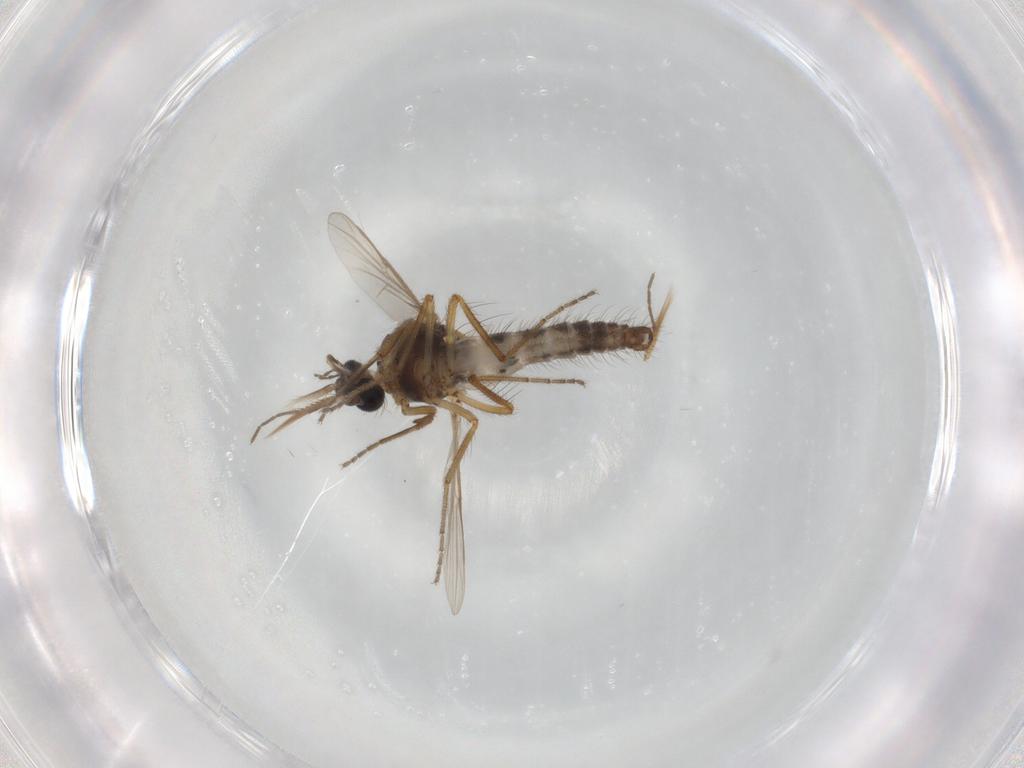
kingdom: Animalia
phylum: Arthropoda
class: Insecta
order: Diptera
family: Ceratopogonidae
